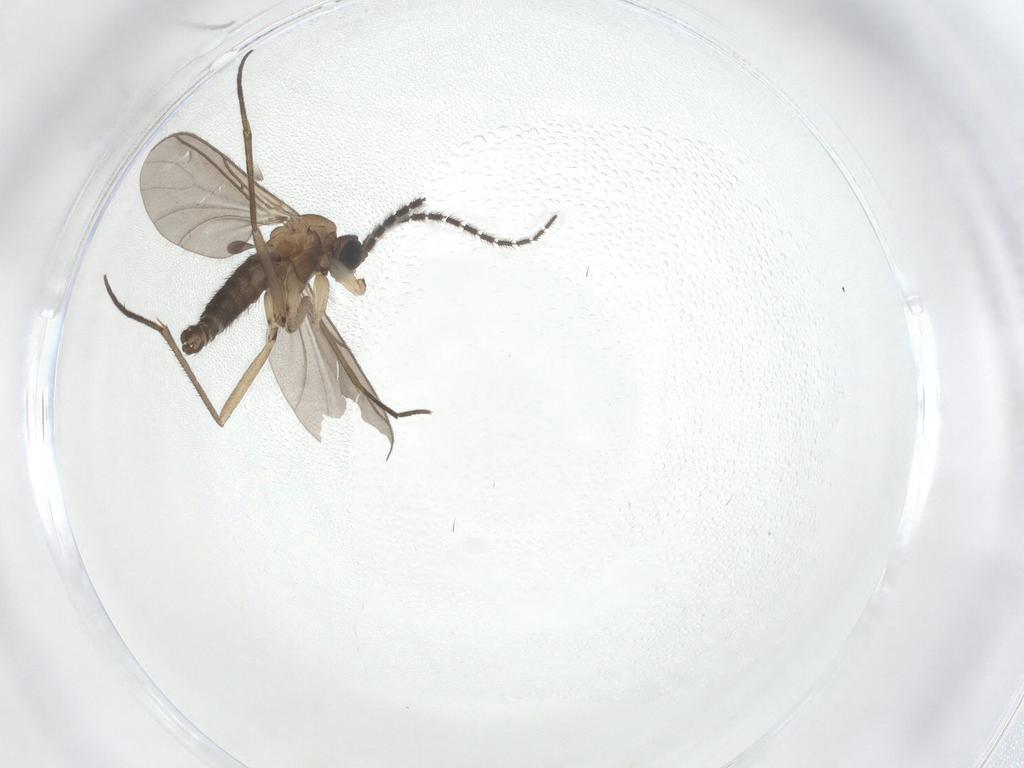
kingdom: Animalia
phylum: Arthropoda
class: Insecta
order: Diptera
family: Sciaridae
